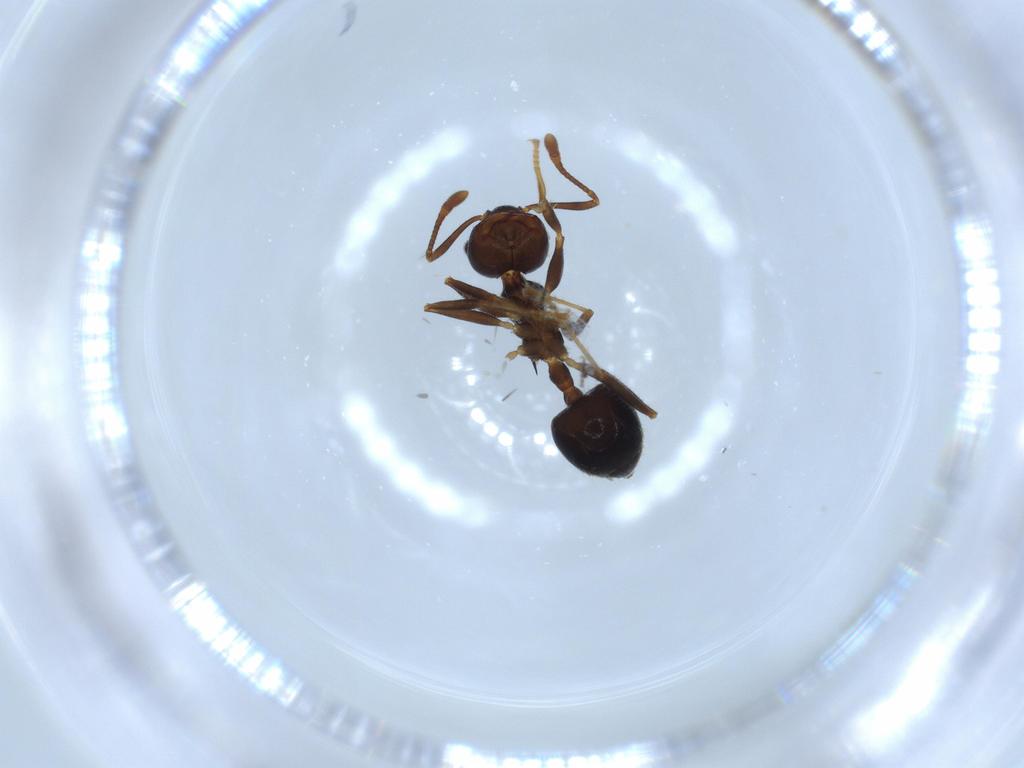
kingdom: Animalia
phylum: Arthropoda
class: Insecta
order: Hymenoptera
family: Formicidae
